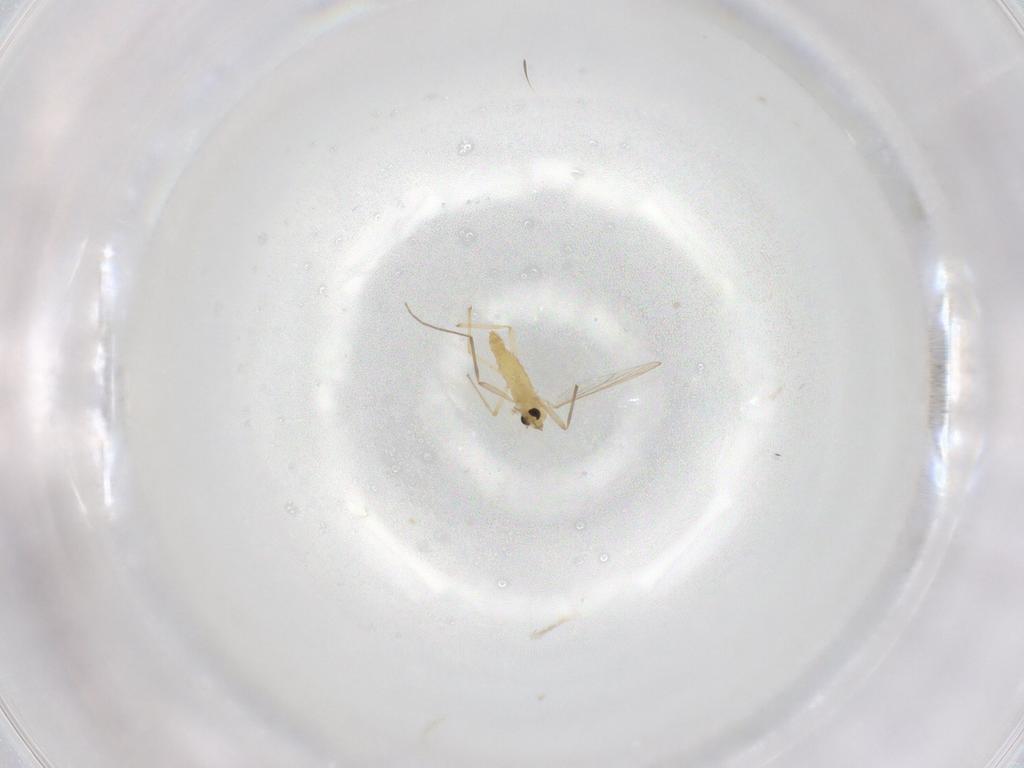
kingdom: Animalia
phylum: Arthropoda
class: Insecta
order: Diptera
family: Chironomidae
